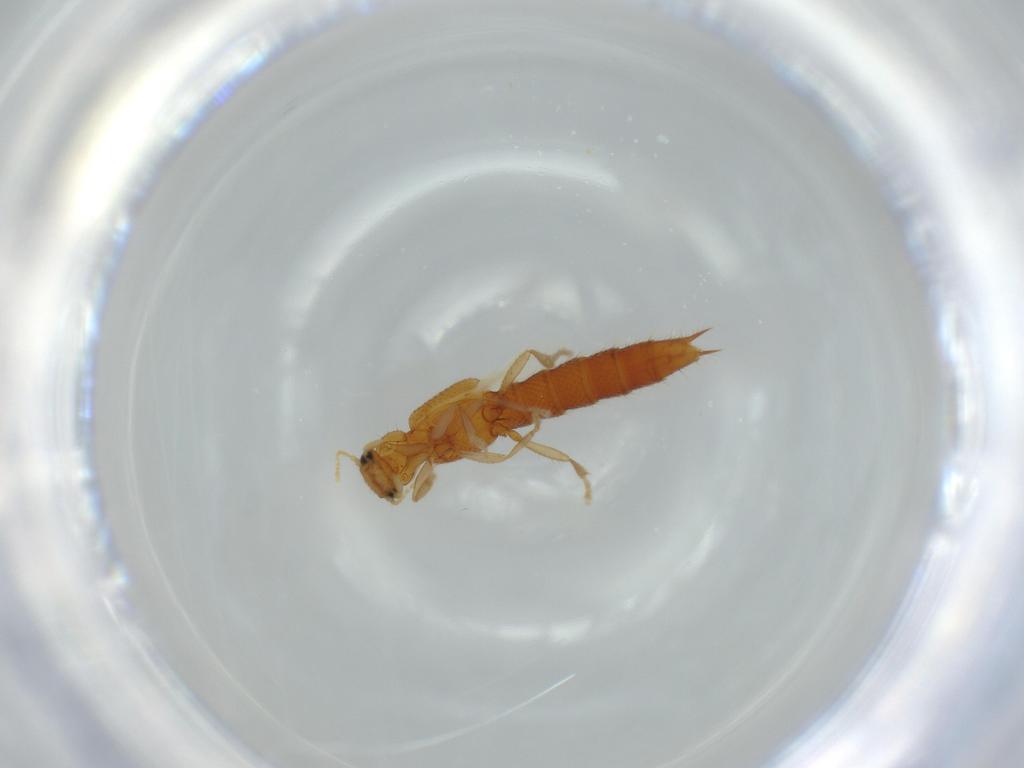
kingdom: Animalia
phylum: Arthropoda
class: Insecta
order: Coleoptera
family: Staphylinidae
